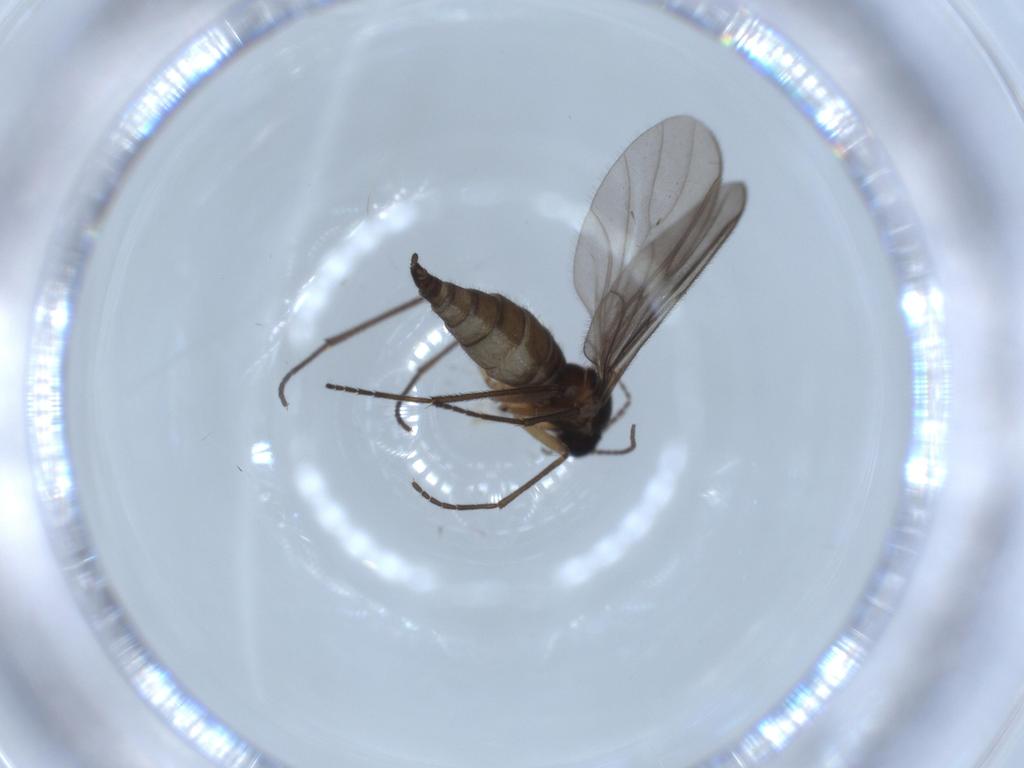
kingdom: Animalia
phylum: Arthropoda
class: Insecta
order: Diptera
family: Sciaridae
